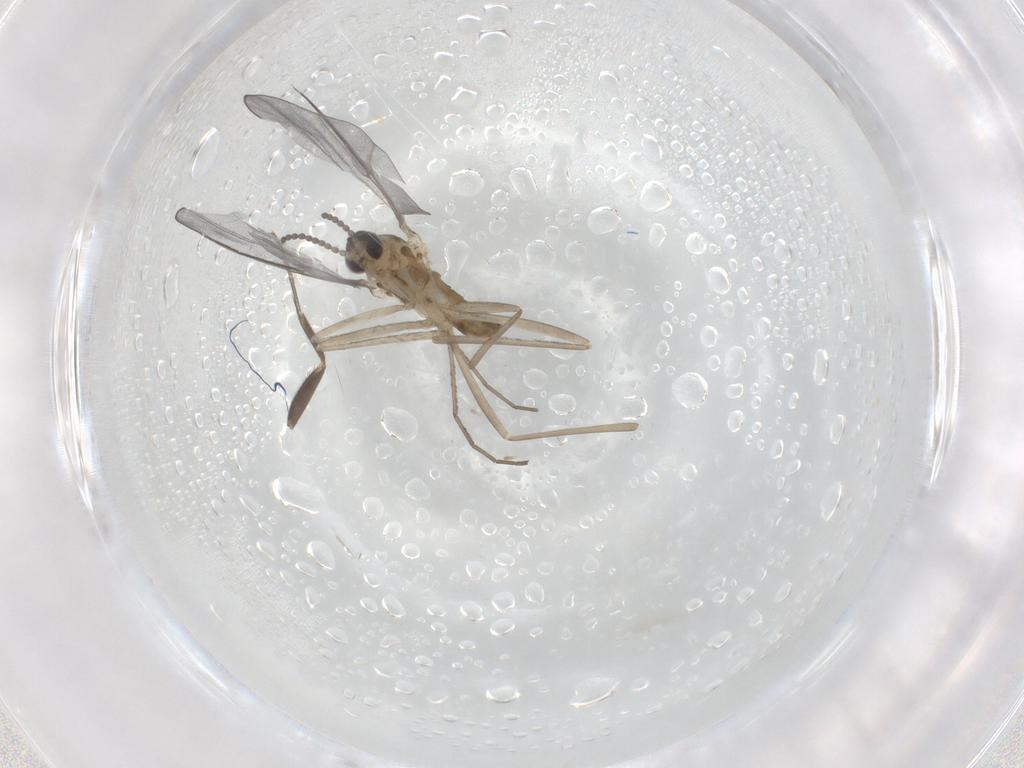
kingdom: Animalia
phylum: Arthropoda
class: Insecta
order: Diptera
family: Cecidomyiidae
